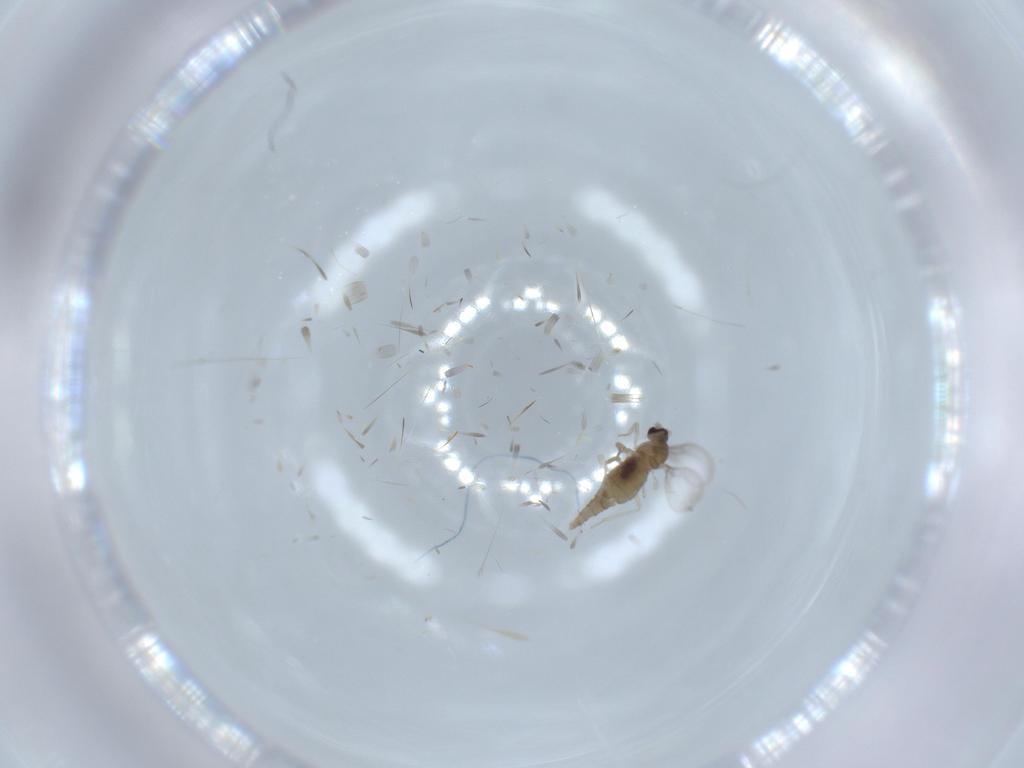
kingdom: Animalia
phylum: Arthropoda
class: Insecta
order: Diptera
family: Cecidomyiidae
